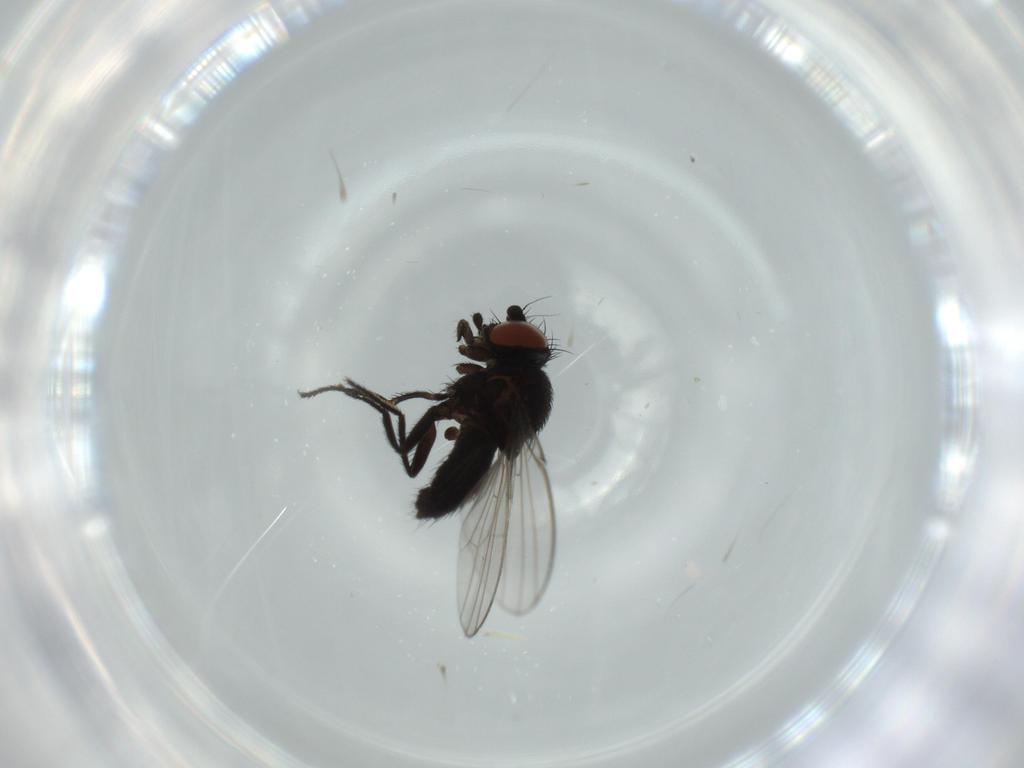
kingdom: Animalia
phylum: Arthropoda
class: Insecta
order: Diptera
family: Milichiidae
